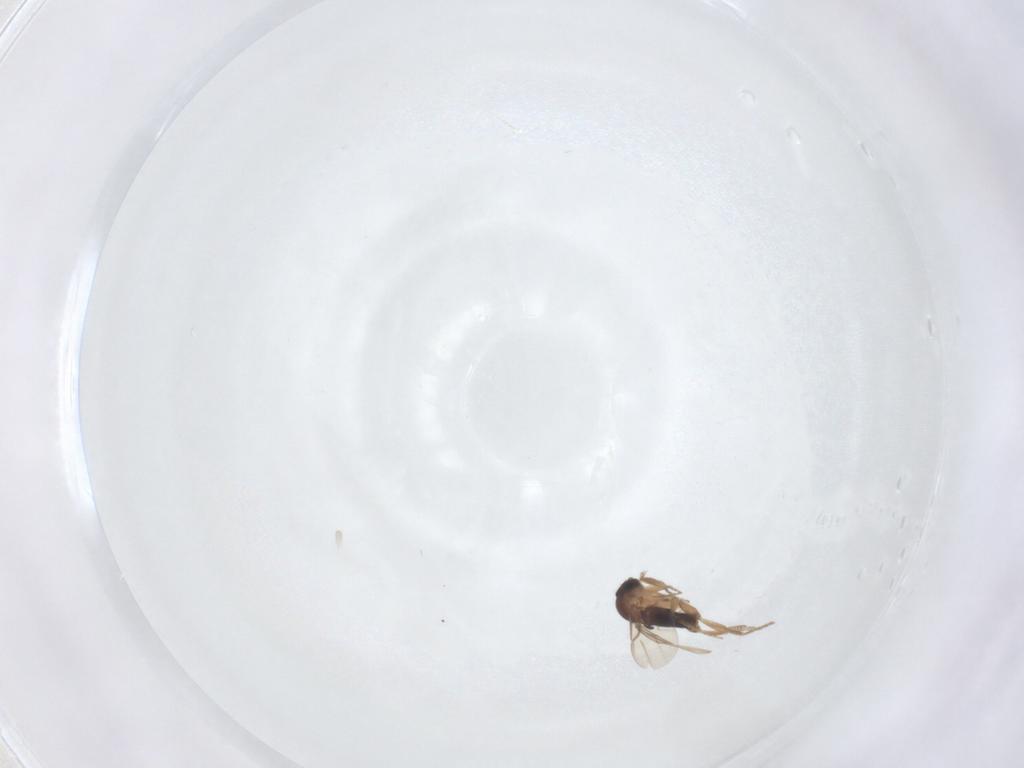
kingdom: Animalia
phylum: Arthropoda
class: Insecta
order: Diptera
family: Phoridae
